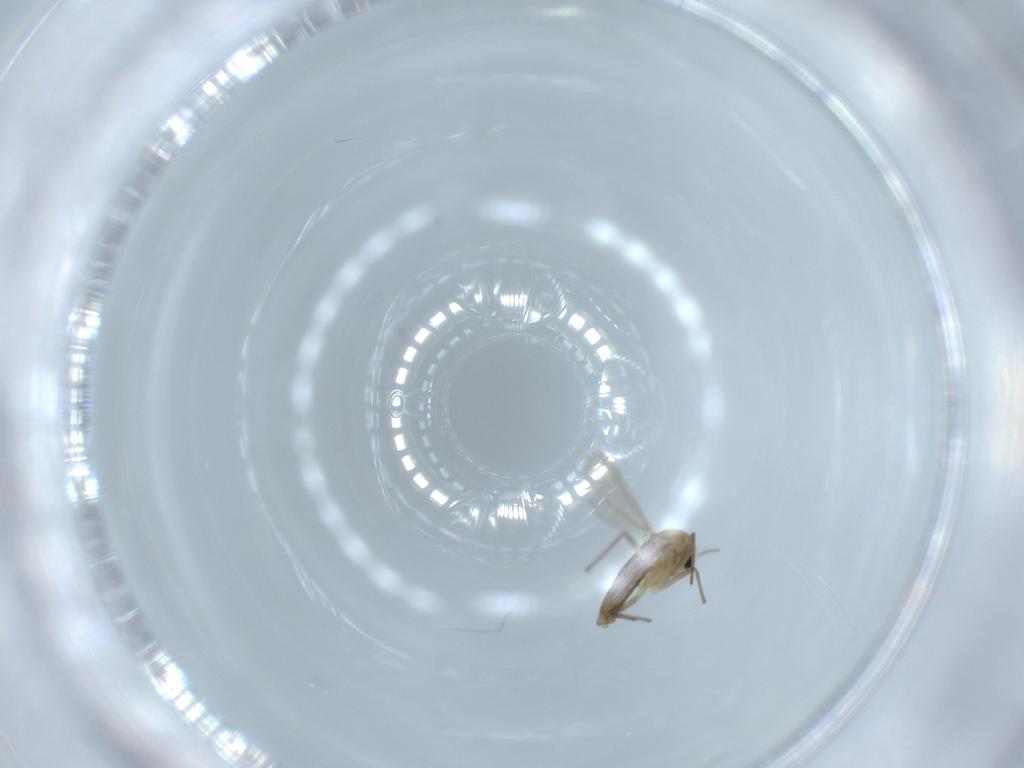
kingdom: Animalia
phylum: Arthropoda
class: Insecta
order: Diptera
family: Chironomidae
